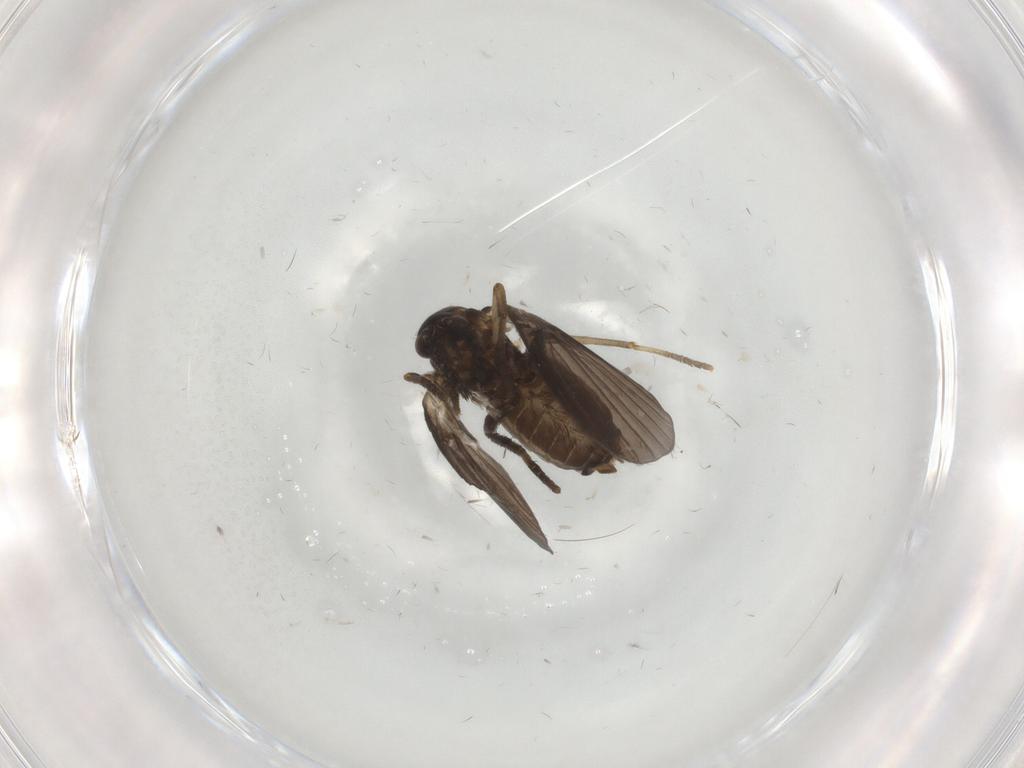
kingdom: Animalia
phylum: Arthropoda
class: Insecta
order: Diptera
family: Psychodidae
